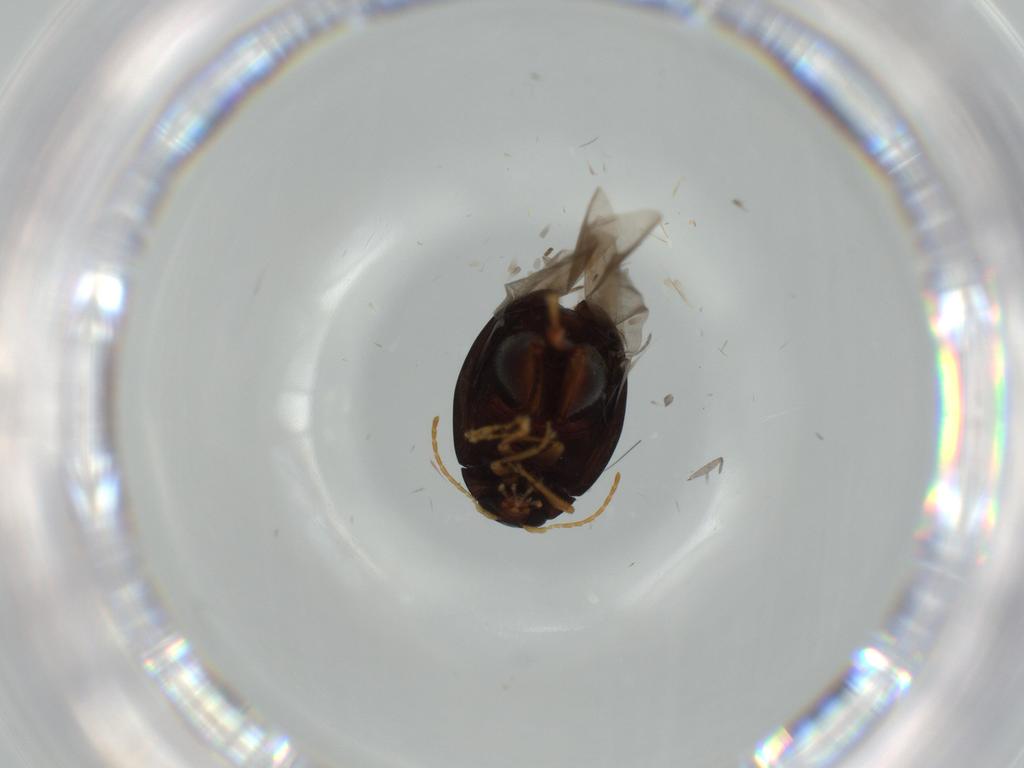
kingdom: Animalia
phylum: Arthropoda
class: Insecta
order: Coleoptera
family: Chrysomelidae
